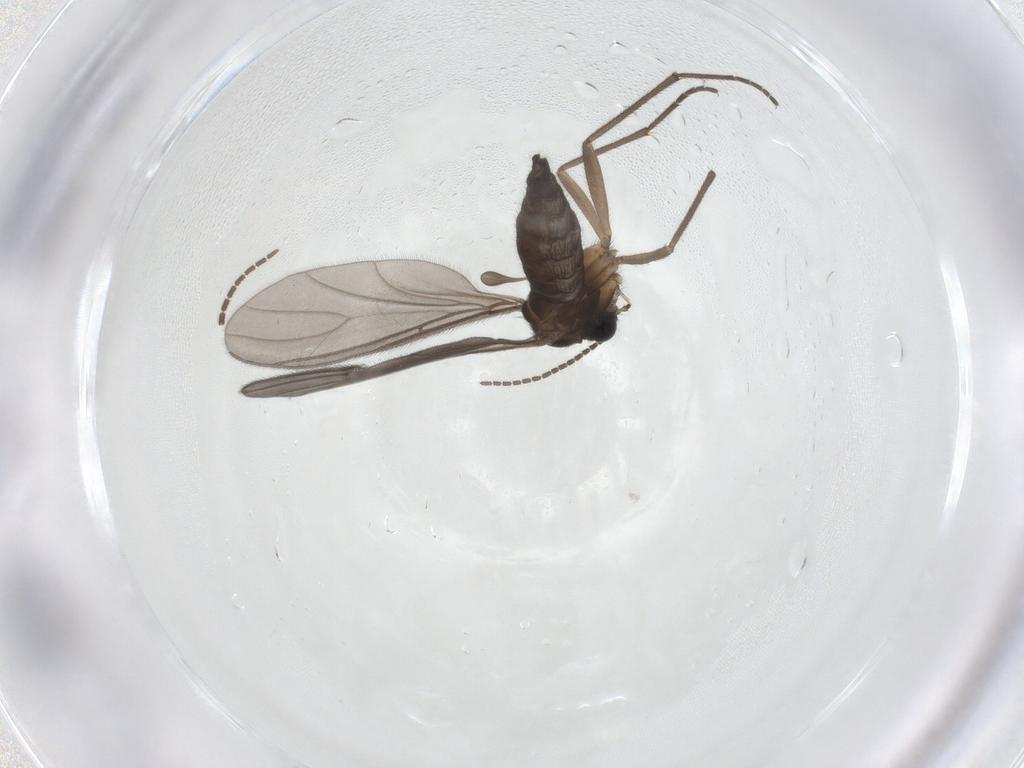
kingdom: Animalia
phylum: Arthropoda
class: Insecta
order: Diptera
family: Sciaridae
